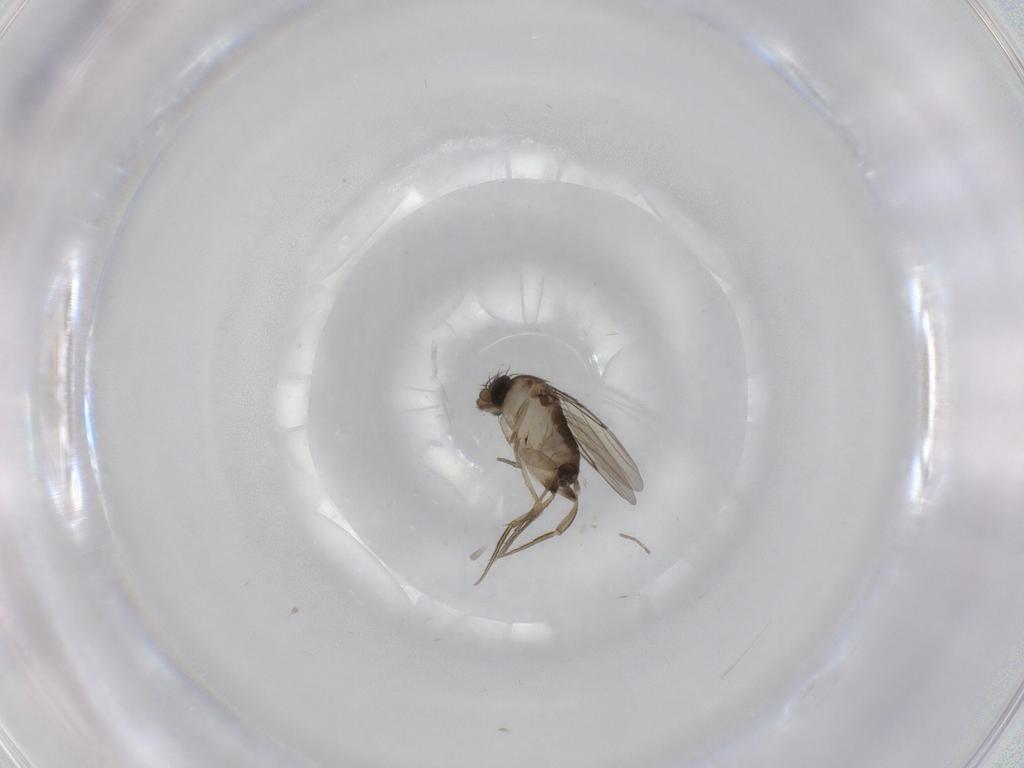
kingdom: Animalia
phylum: Arthropoda
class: Insecta
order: Diptera
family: Phoridae
